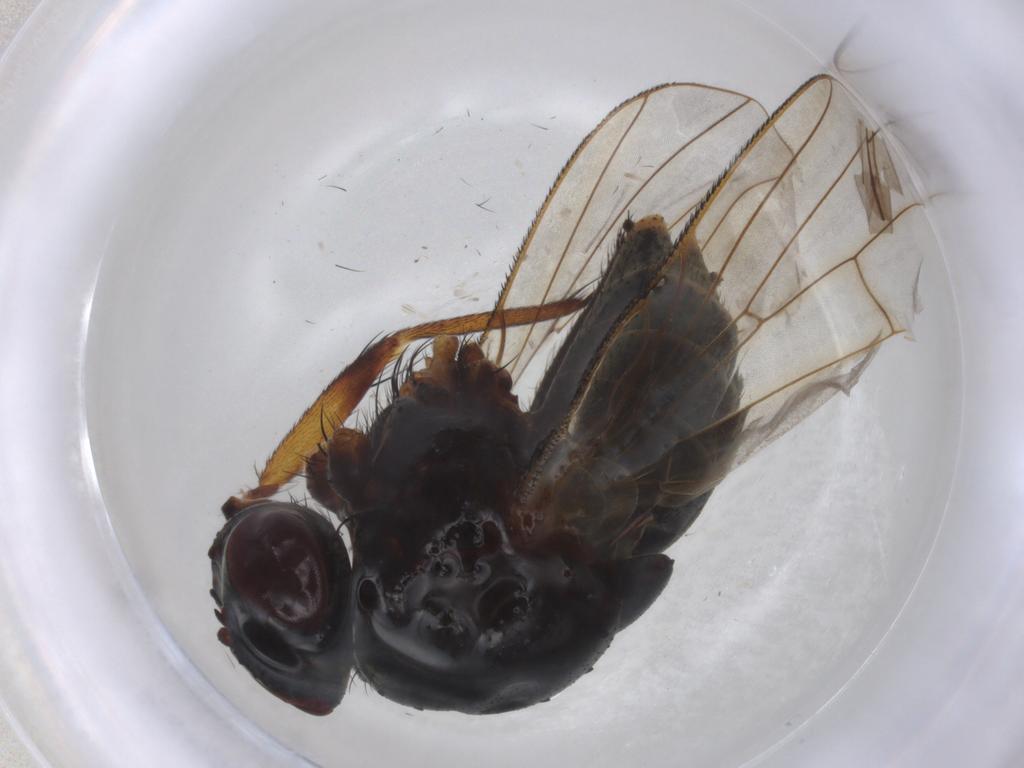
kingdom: Animalia
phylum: Arthropoda
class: Insecta
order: Diptera
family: Muscidae
